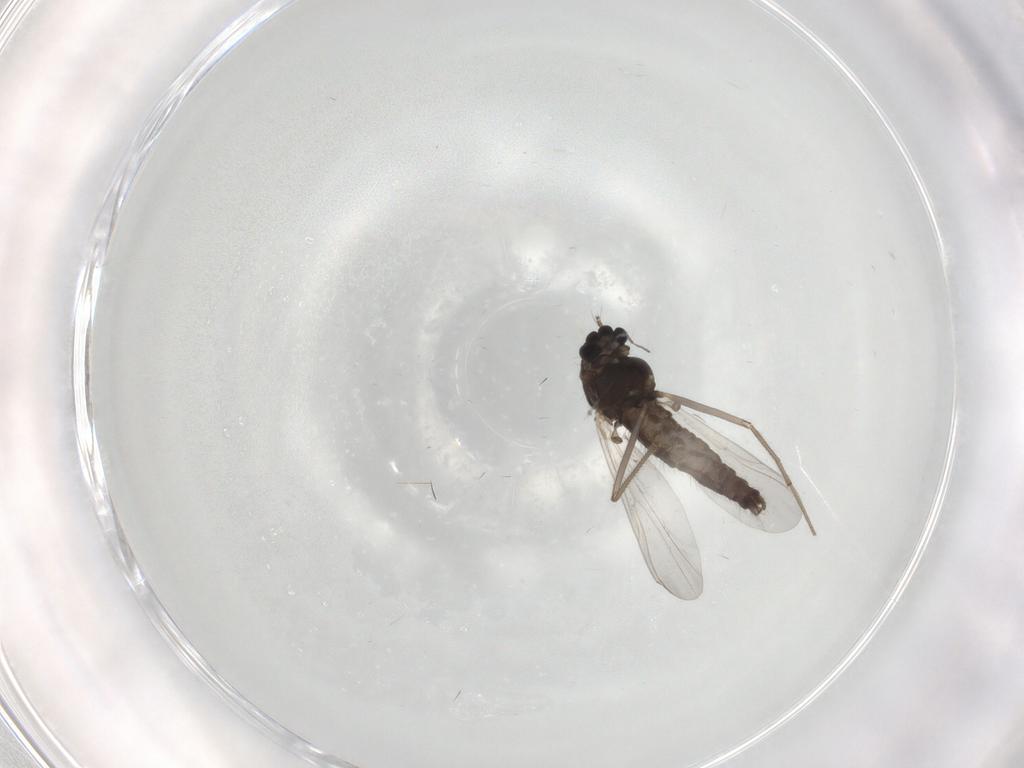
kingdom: Animalia
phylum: Arthropoda
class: Insecta
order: Diptera
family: Chironomidae
